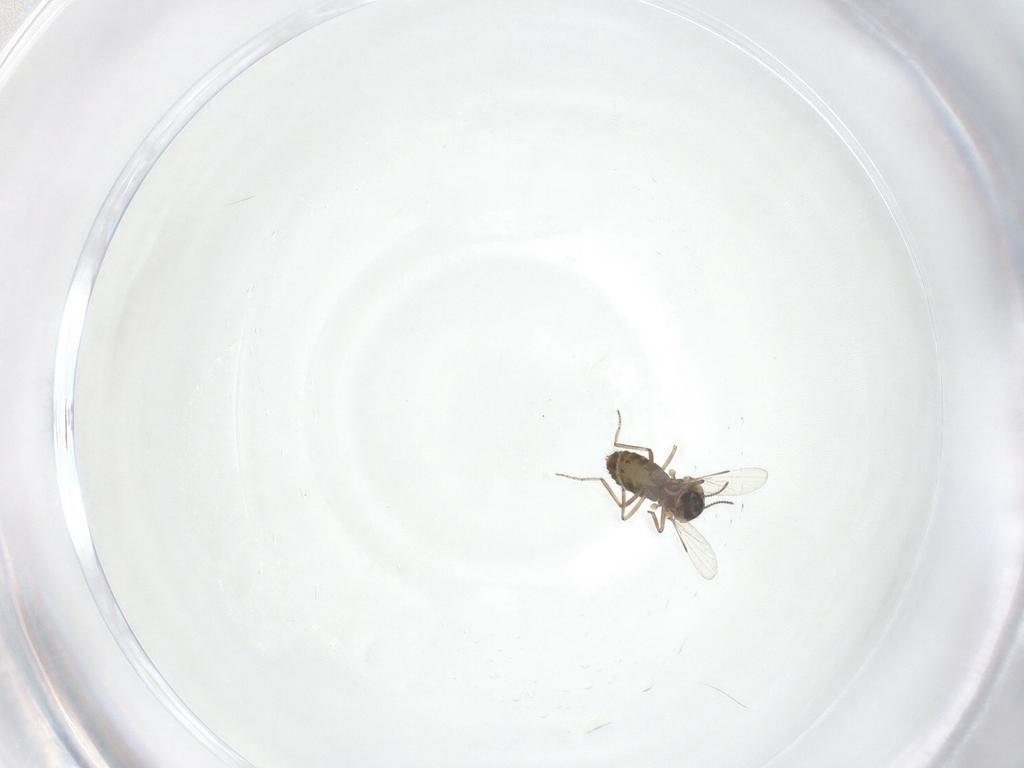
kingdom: Animalia
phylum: Arthropoda
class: Insecta
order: Diptera
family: Ceratopogonidae
